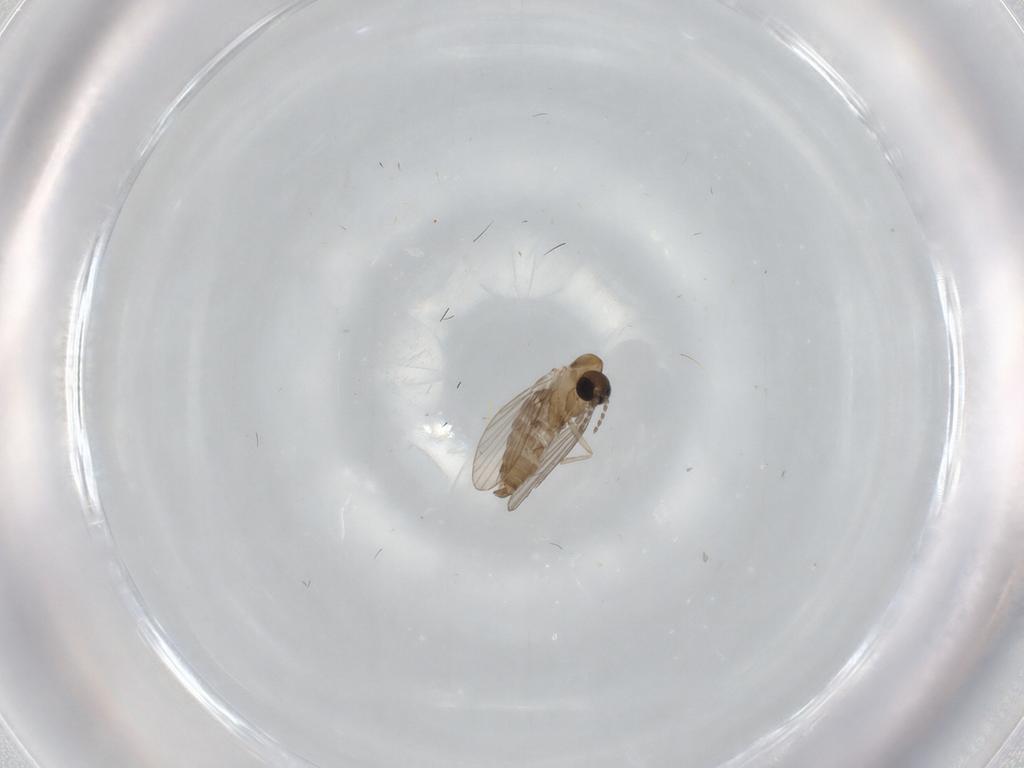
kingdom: Animalia
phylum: Arthropoda
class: Insecta
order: Diptera
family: Psychodidae
